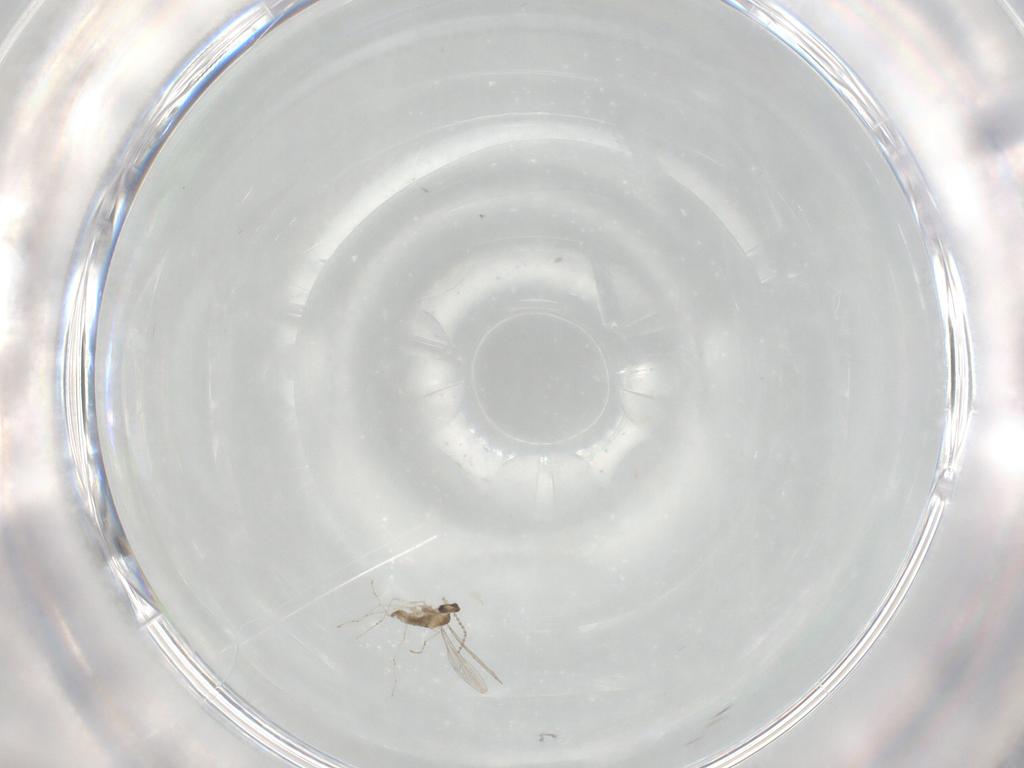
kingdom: Animalia
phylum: Arthropoda
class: Insecta
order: Diptera
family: Cecidomyiidae
